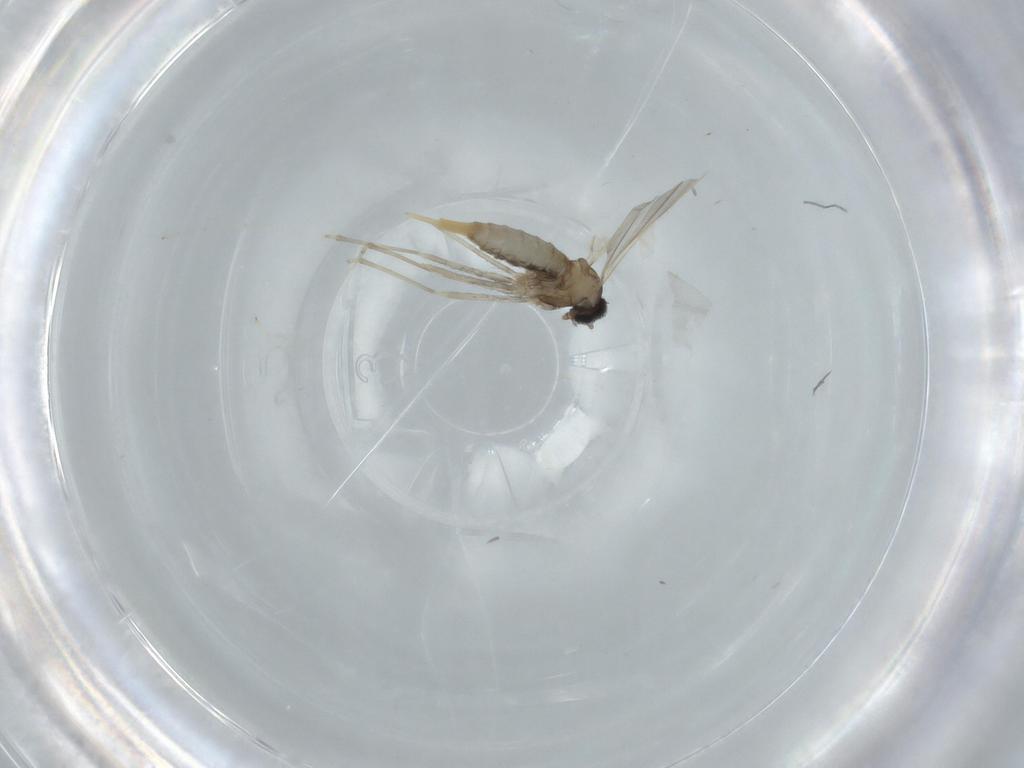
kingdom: Animalia
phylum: Arthropoda
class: Insecta
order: Diptera
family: Cecidomyiidae
